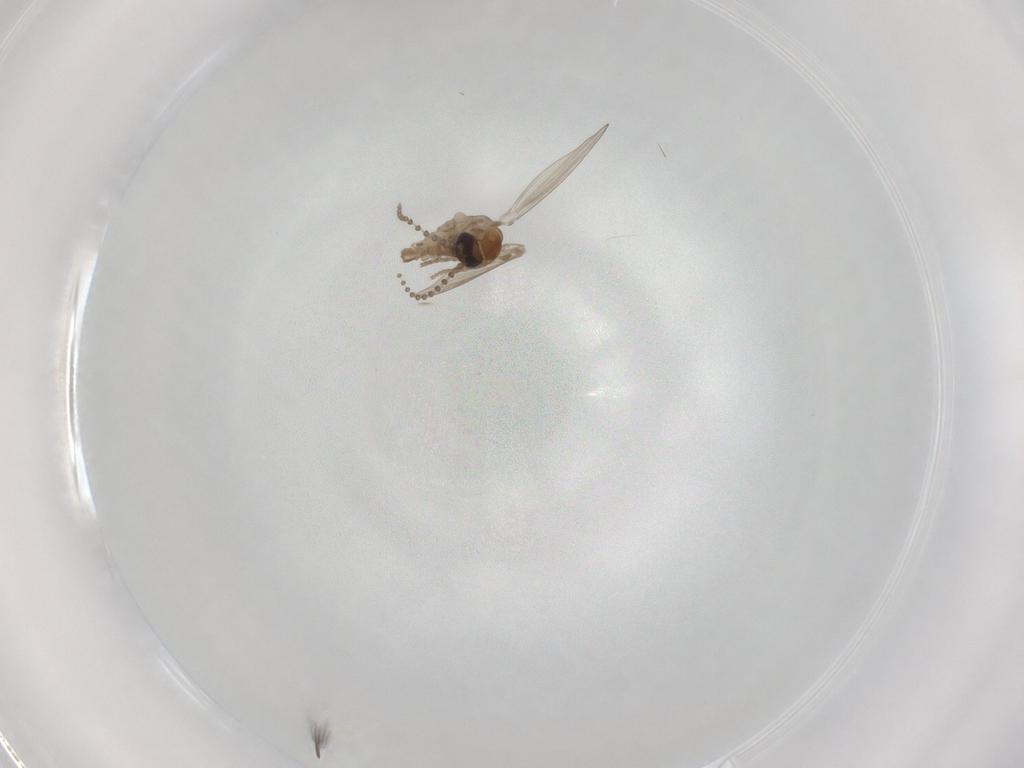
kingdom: Animalia
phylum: Arthropoda
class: Insecta
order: Diptera
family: Psychodidae
